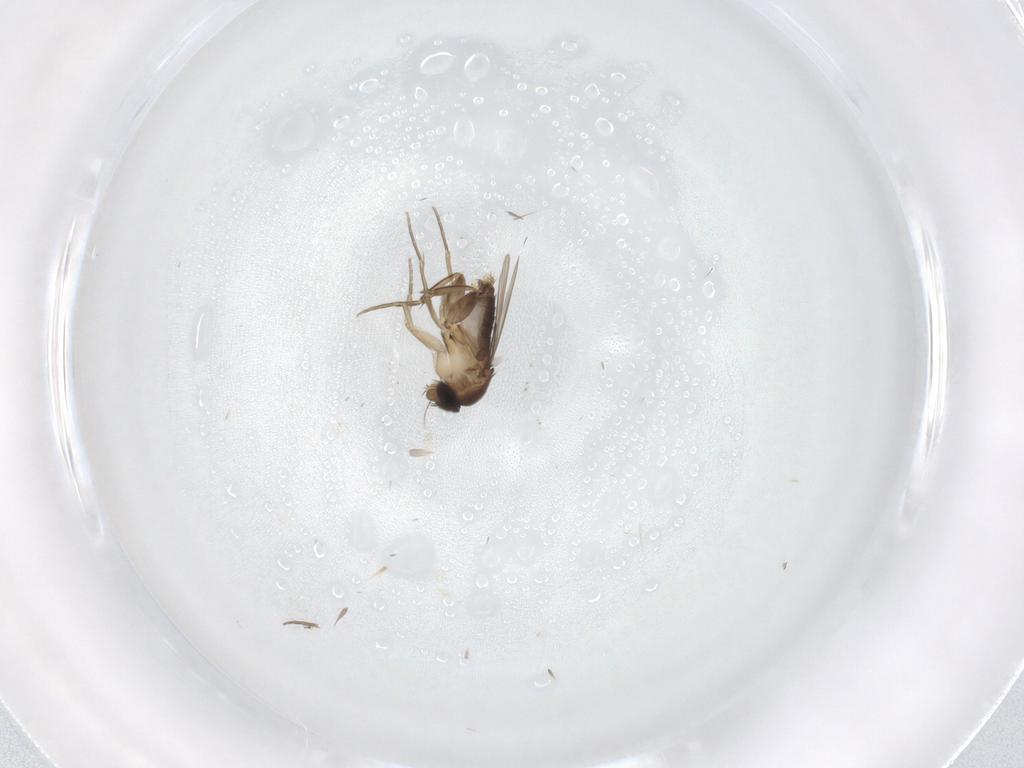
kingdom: Animalia
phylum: Arthropoda
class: Insecta
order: Diptera
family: Phoridae
